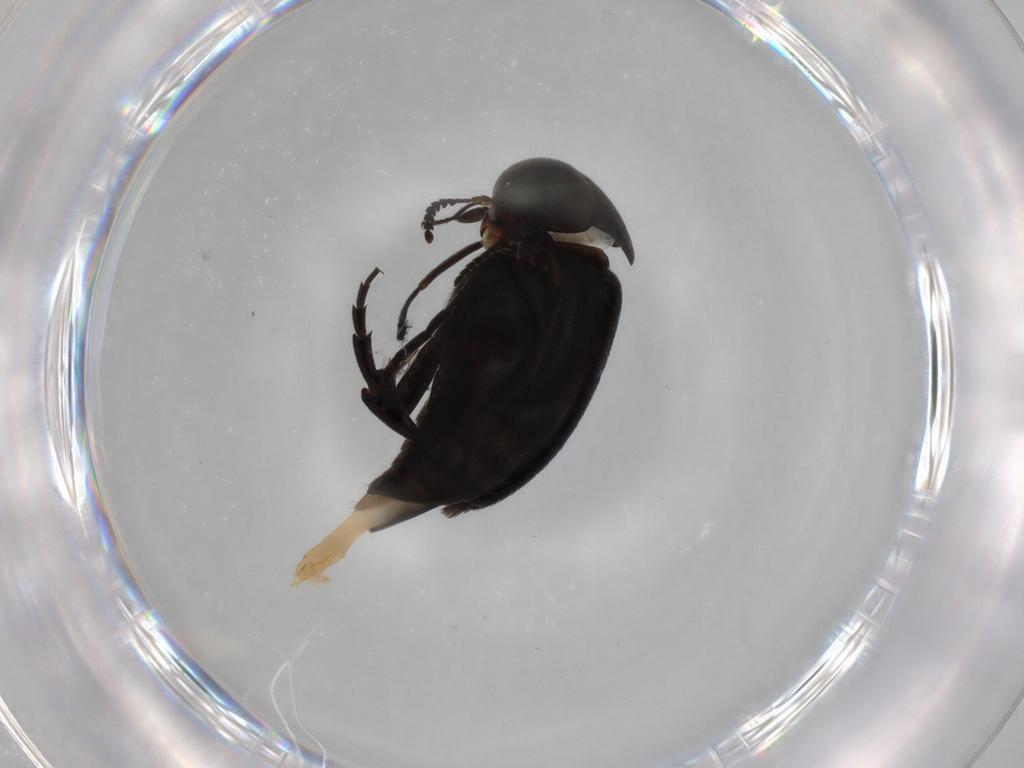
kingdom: Animalia
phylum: Arthropoda
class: Insecta
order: Coleoptera
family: Mordellidae
